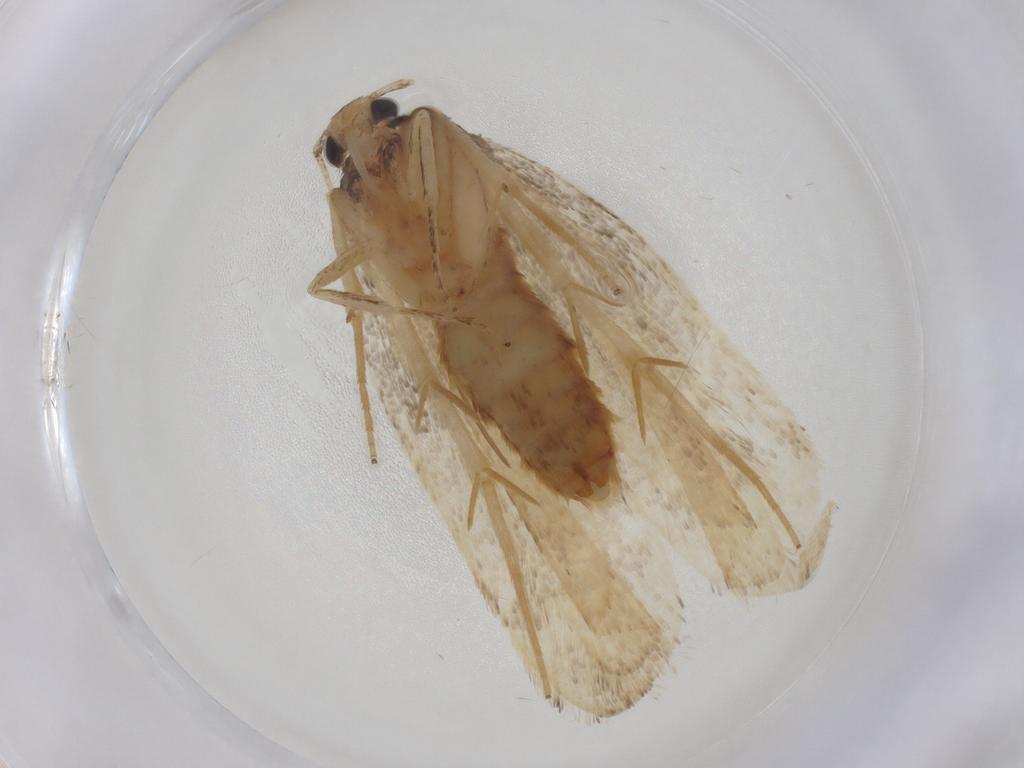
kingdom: Animalia
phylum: Arthropoda
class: Insecta
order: Lepidoptera
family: Lecithoceridae
